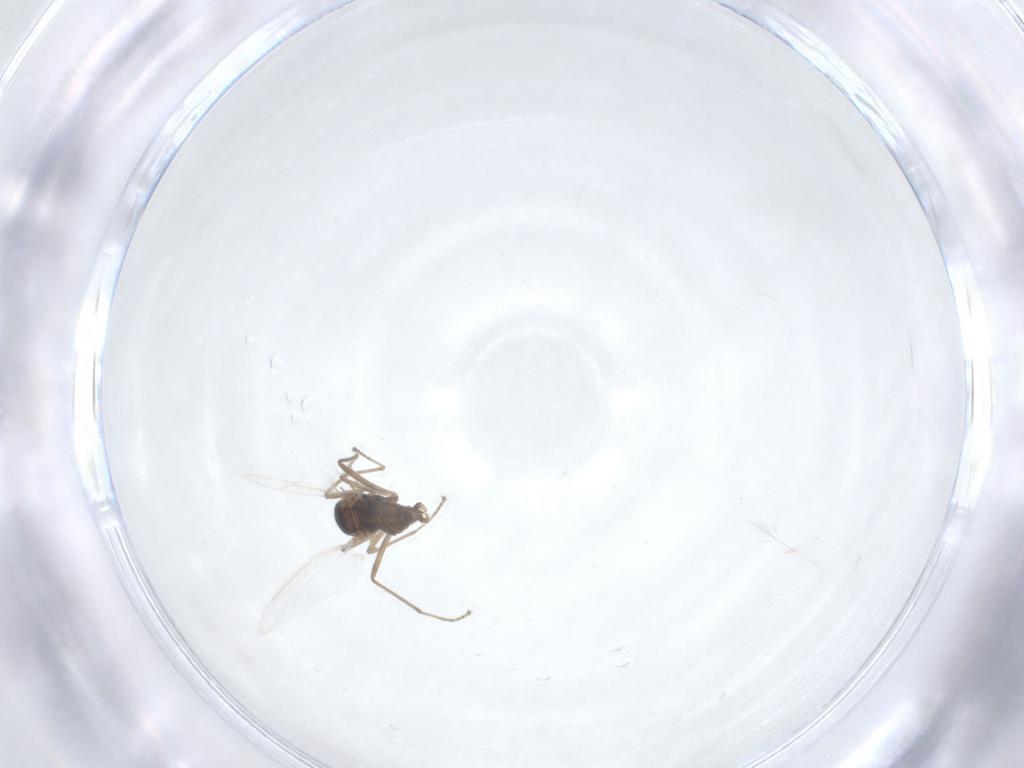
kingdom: Animalia
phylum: Arthropoda
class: Insecta
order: Diptera
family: Cecidomyiidae
